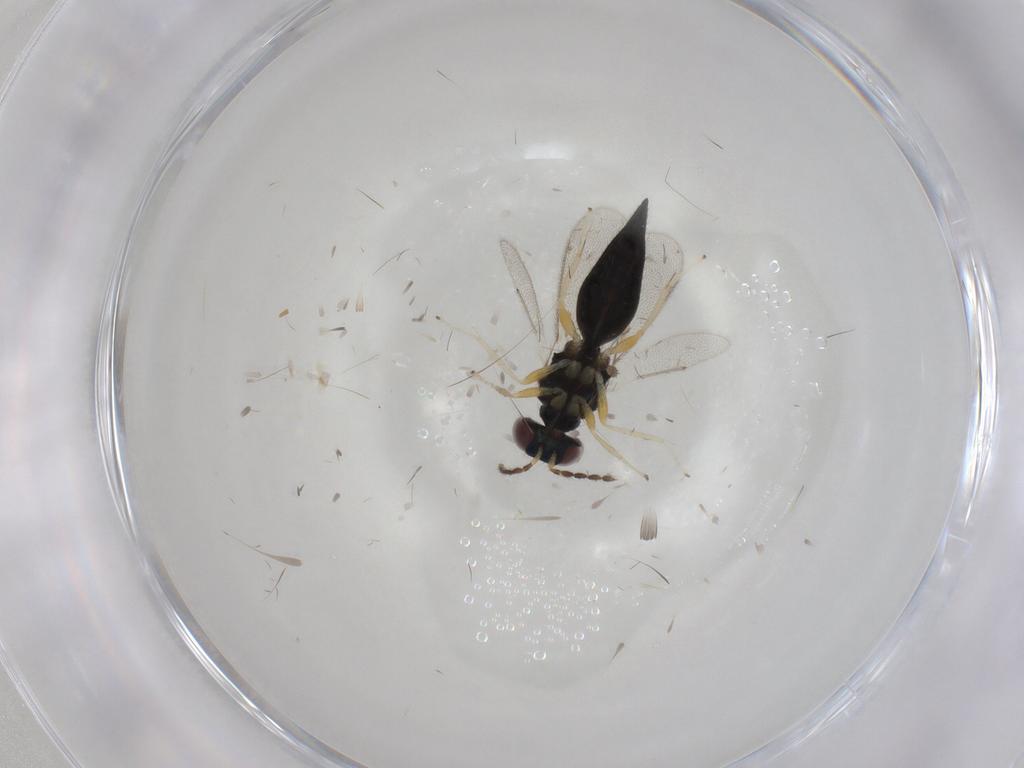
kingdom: Animalia
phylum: Arthropoda
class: Insecta
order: Hymenoptera
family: Eulophidae
